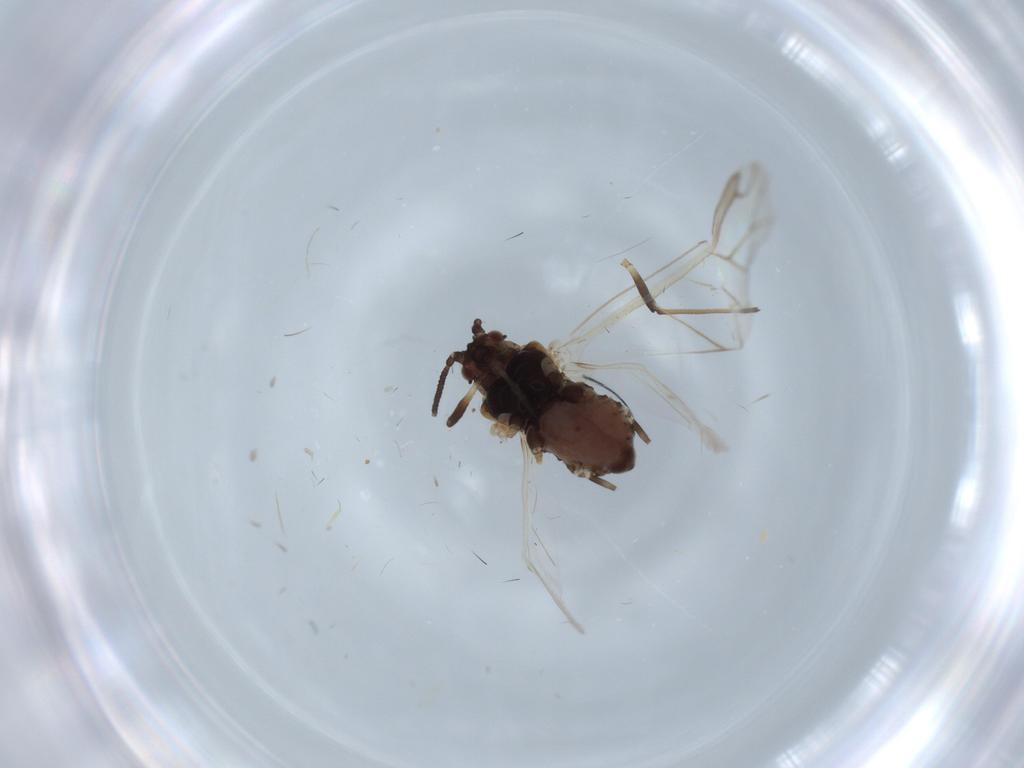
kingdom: Animalia
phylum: Arthropoda
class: Insecta
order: Hemiptera
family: Aphididae
